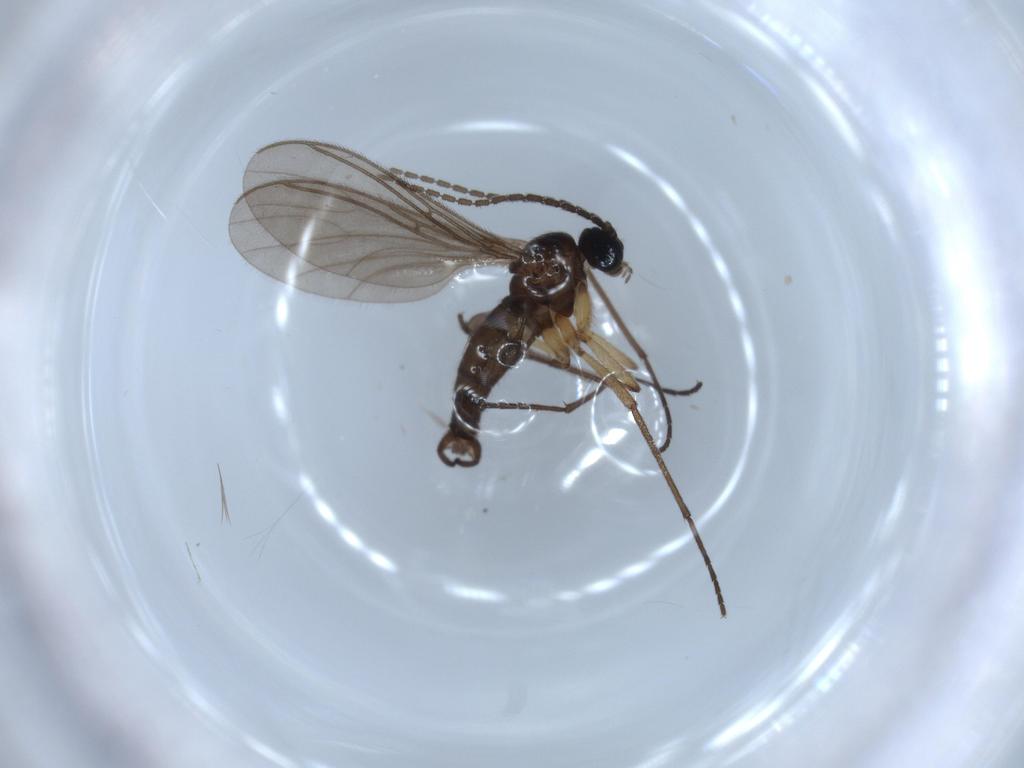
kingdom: Animalia
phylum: Arthropoda
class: Insecta
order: Diptera
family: Sciaridae
